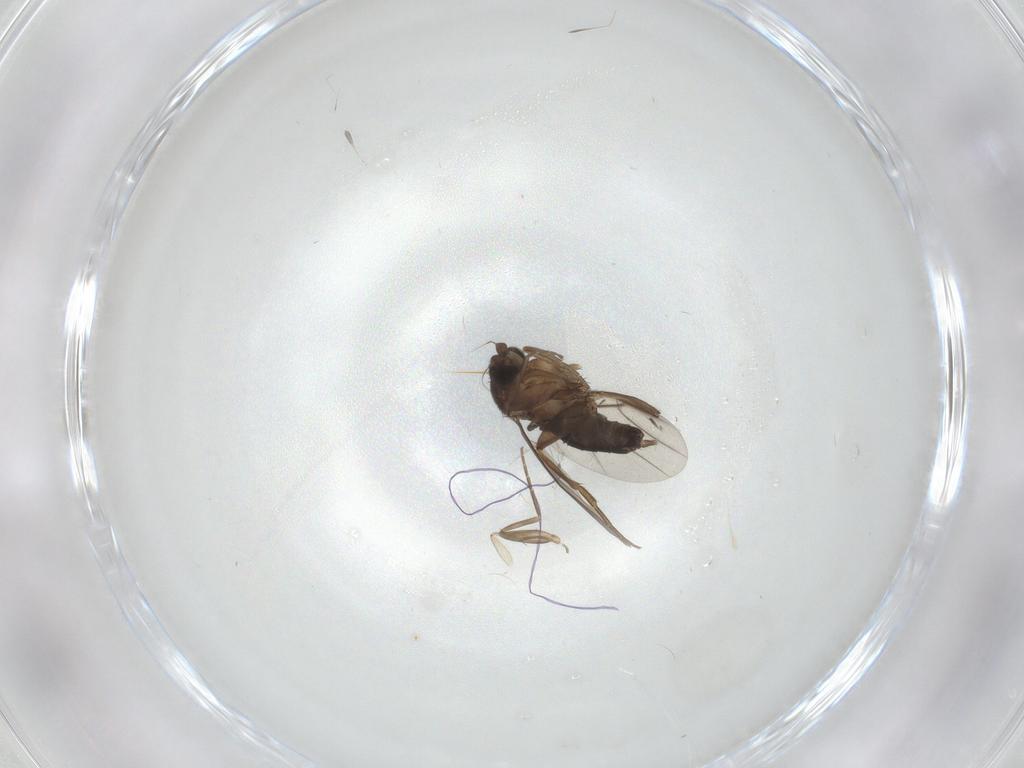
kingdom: Animalia
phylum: Arthropoda
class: Insecta
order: Diptera
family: Phoridae
